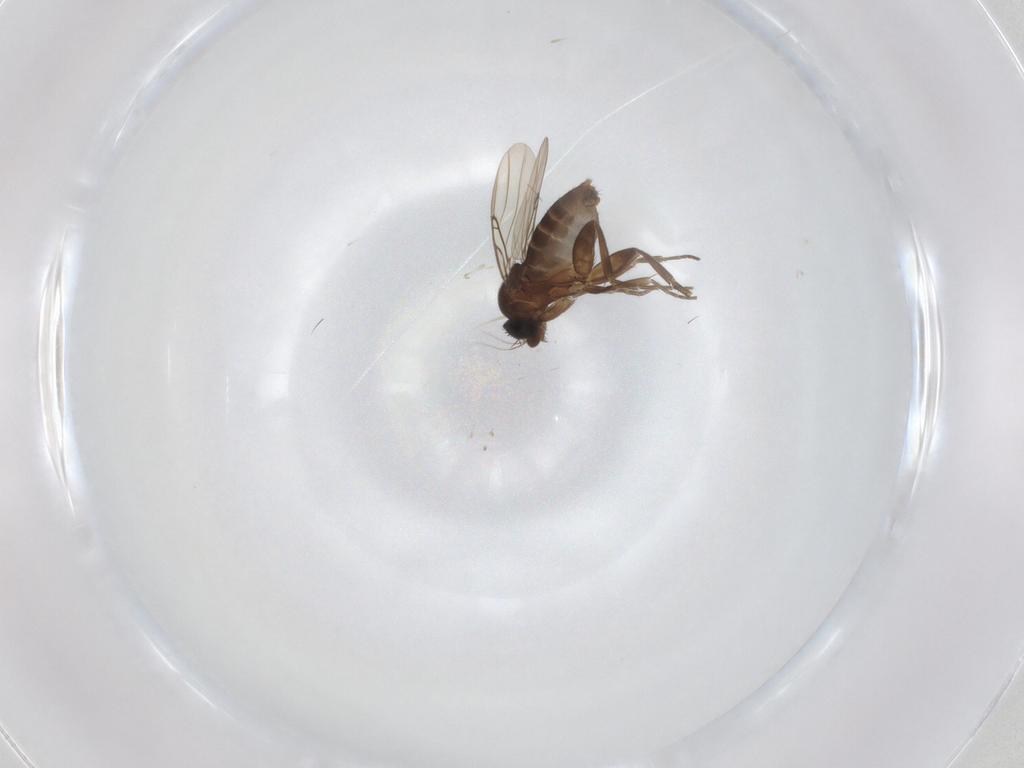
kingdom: Animalia
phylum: Arthropoda
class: Insecta
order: Diptera
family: Phoridae
